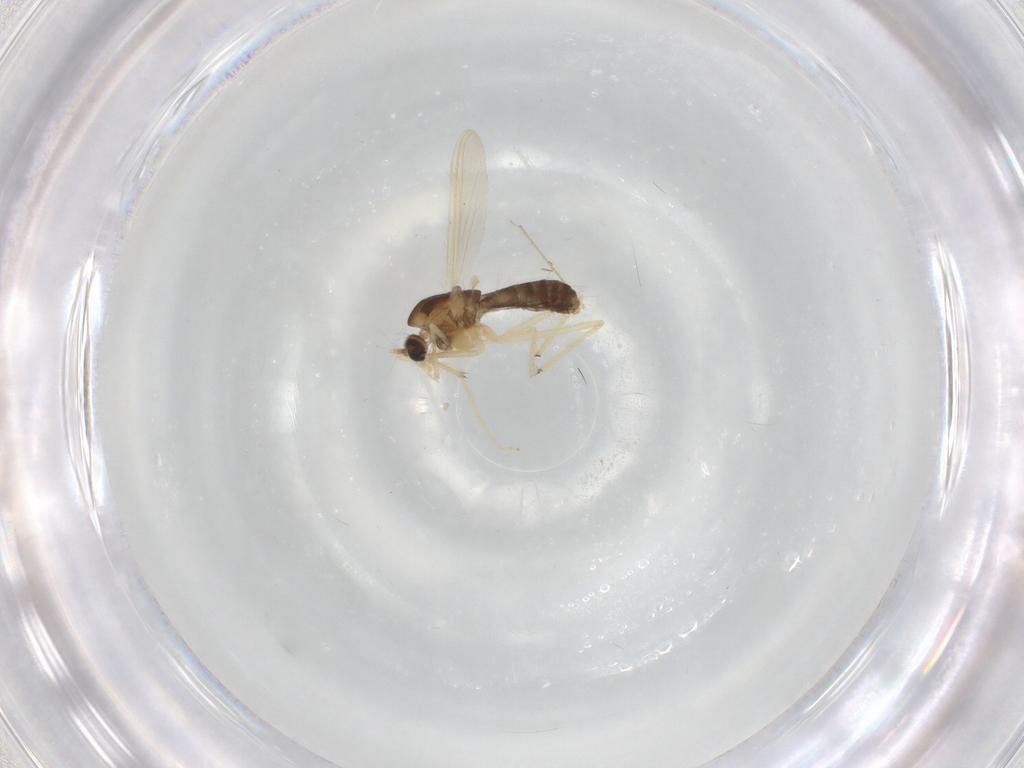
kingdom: Animalia
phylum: Arthropoda
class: Insecta
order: Diptera
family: Chironomidae
